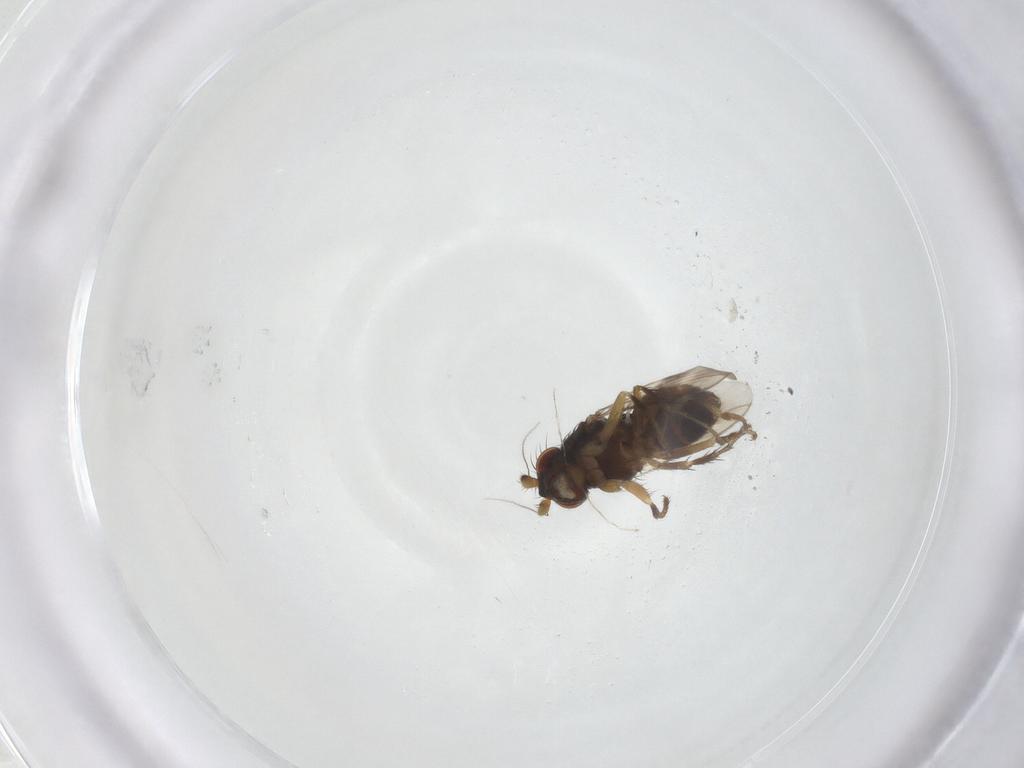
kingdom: Animalia
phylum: Arthropoda
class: Insecta
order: Diptera
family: Sphaeroceridae
